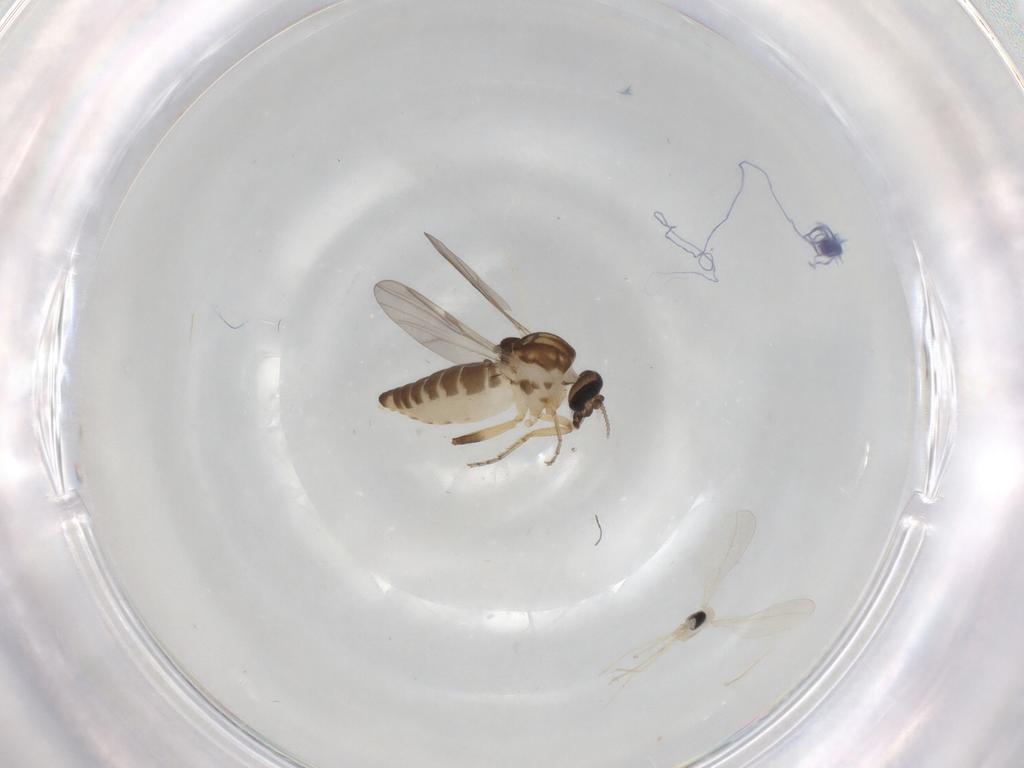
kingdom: Animalia
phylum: Arthropoda
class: Insecta
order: Diptera
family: Cecidomyiidae
